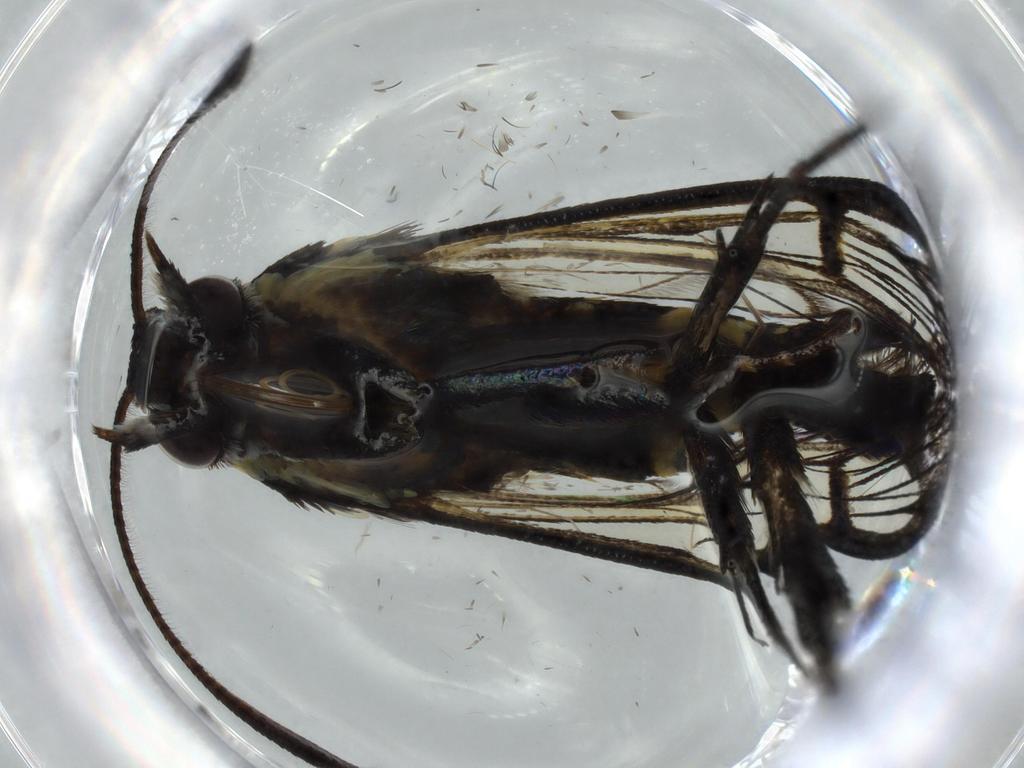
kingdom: Animalia
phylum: Arthropoda
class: Insecta
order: Lepidoptera
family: Sesiidae
